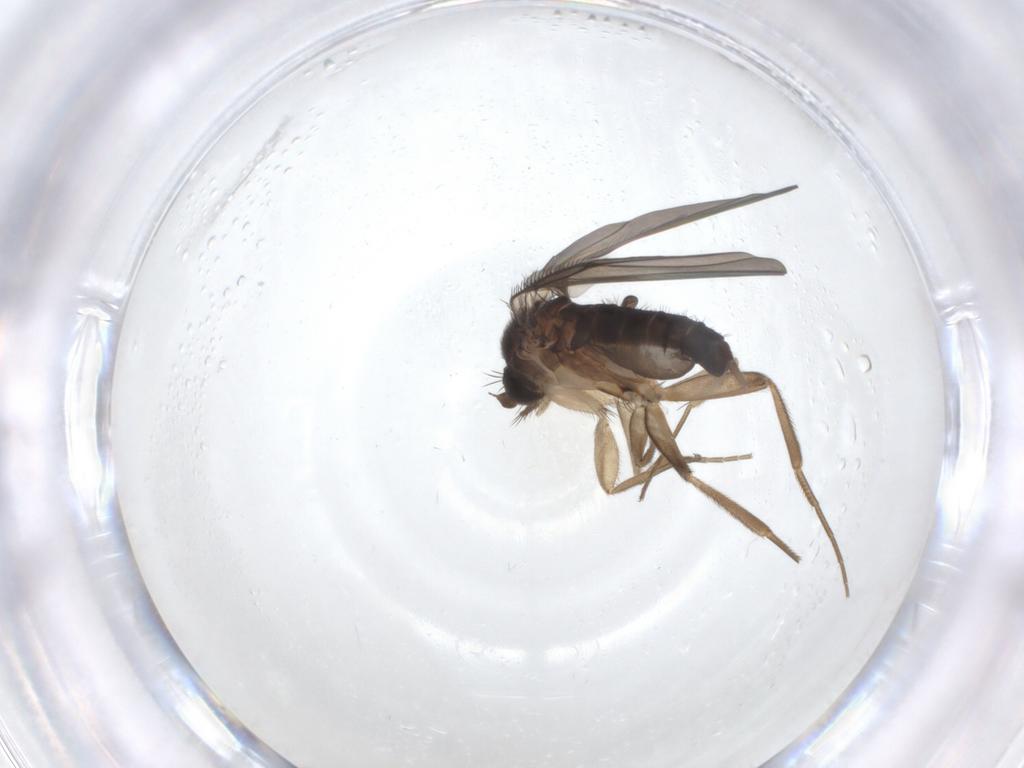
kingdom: Animalia
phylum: Arthropoda
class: Insecta
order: Diptera
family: Phoridae
